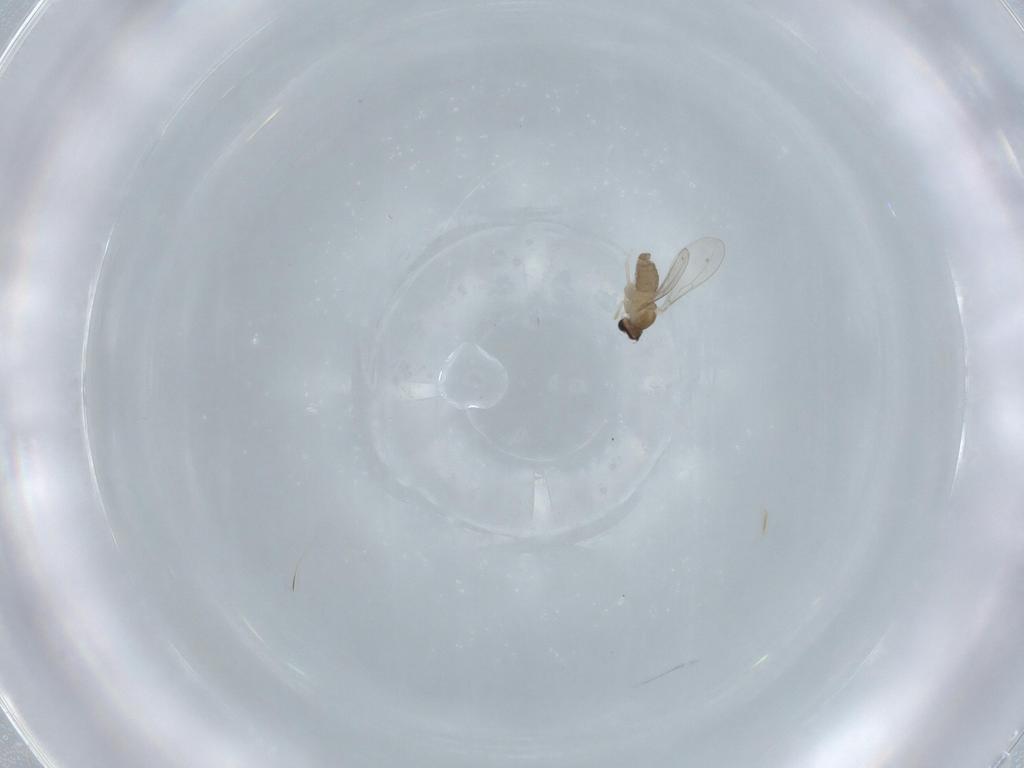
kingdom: Animalia
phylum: Arthropoda
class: Insecta
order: Diptera
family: Cecidomyiidae
